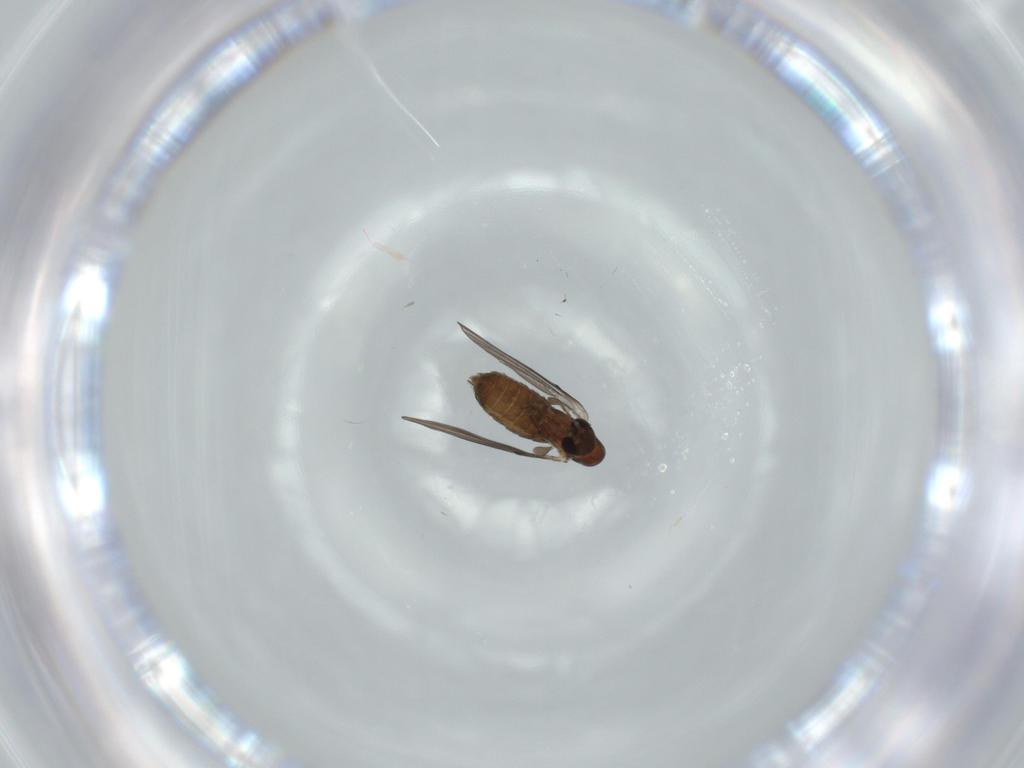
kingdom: Animalia
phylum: Arthropoda
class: Insecta
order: Diptera
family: Psychodidae
